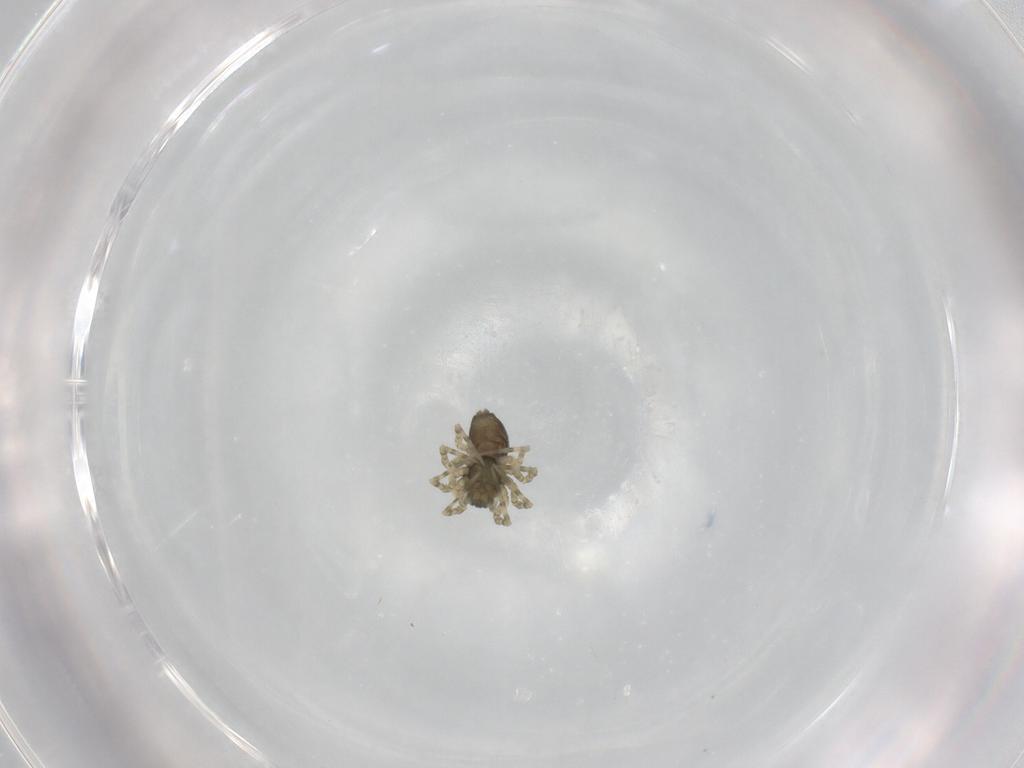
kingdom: Animalia
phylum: Arthropoda
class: Arachnida
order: Araneae
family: Linyphiidae
